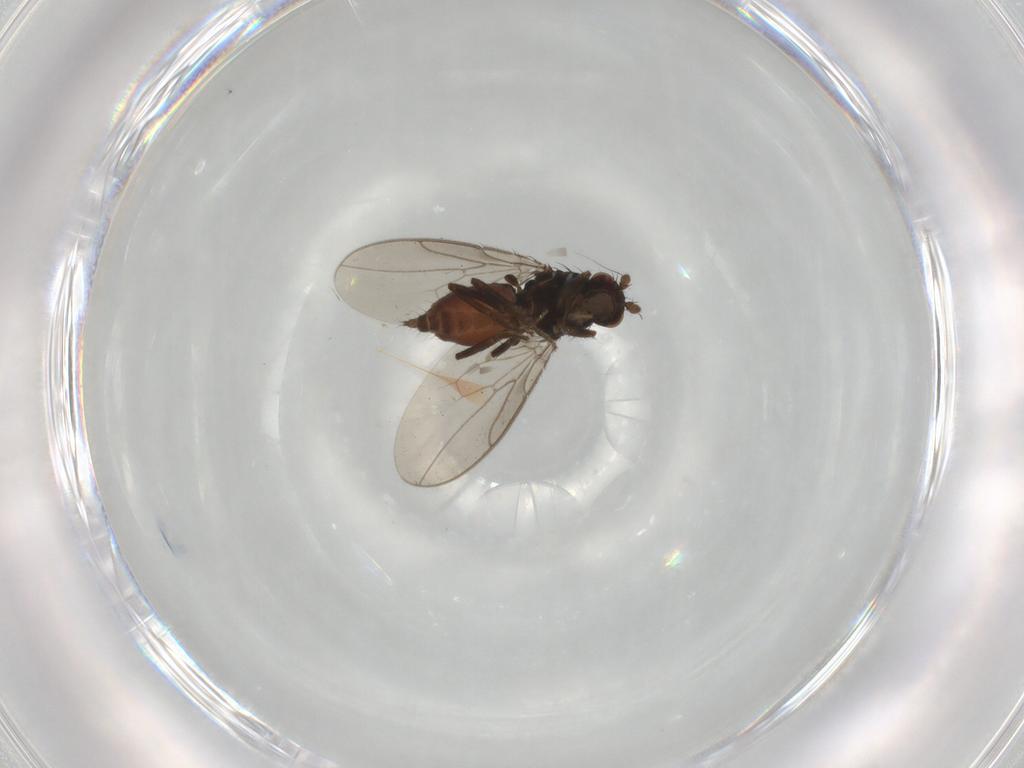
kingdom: Animalia
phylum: Arthropoda
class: Insecta
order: Diptera
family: Sphaeroceridae
